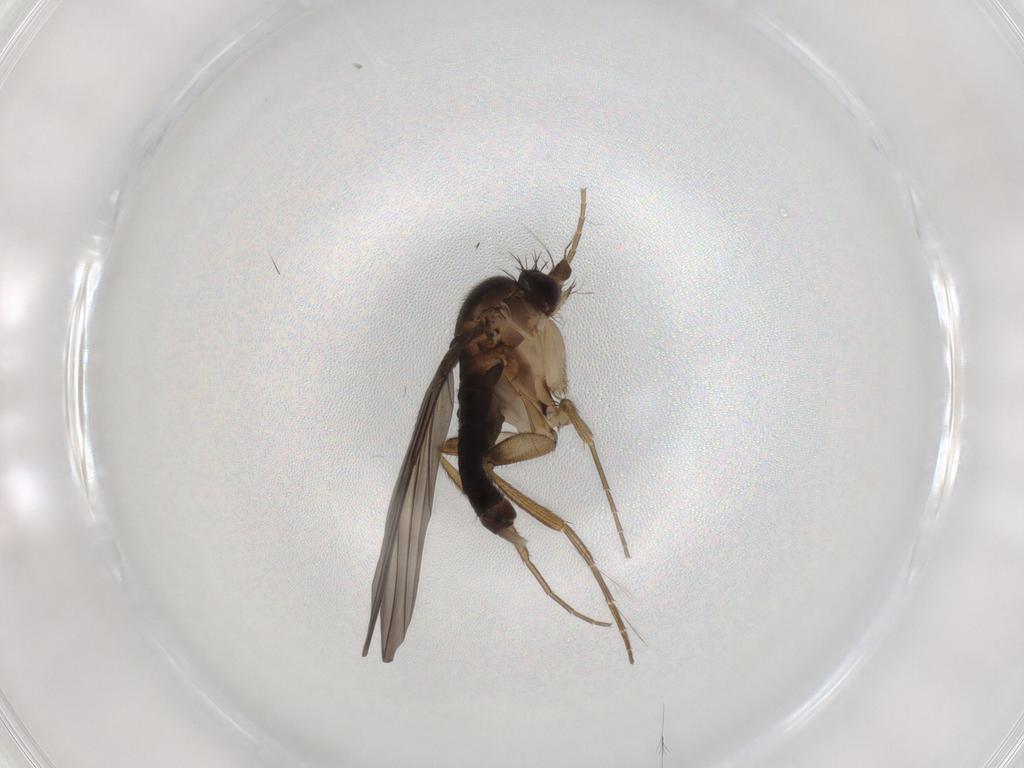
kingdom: Animalia
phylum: Arthropoda
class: Insecta
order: Diptera
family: Phoridae
